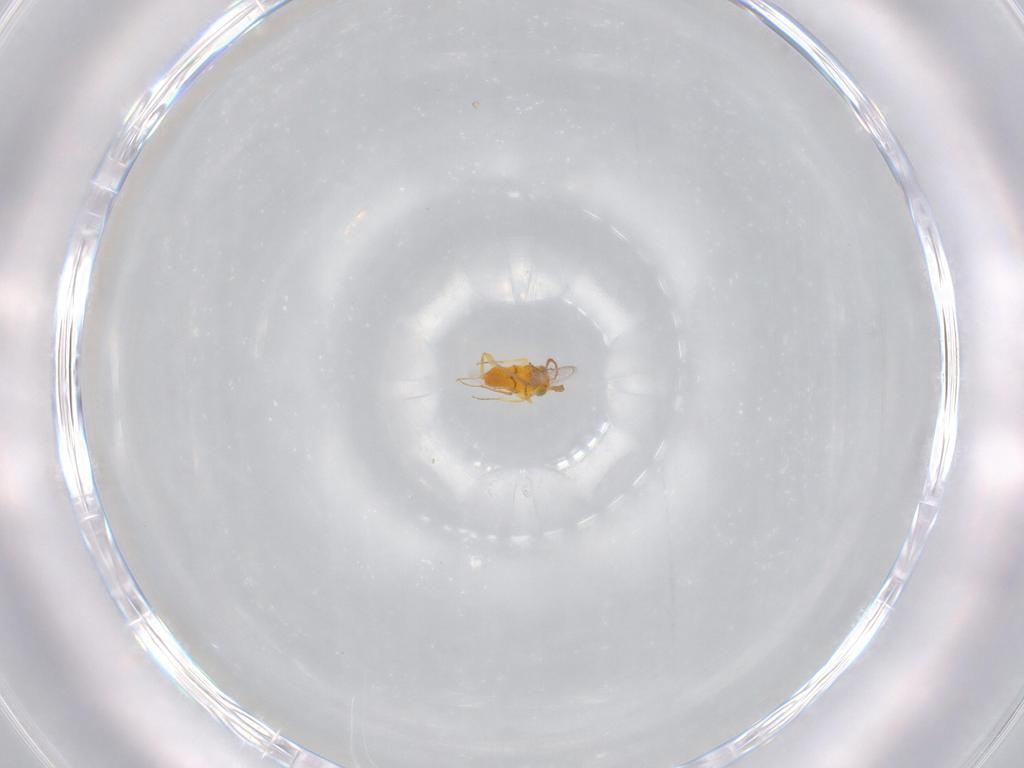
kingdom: Animalia
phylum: Arthropoda
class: Insecta
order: Hymenoptera
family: Aphelinidae
